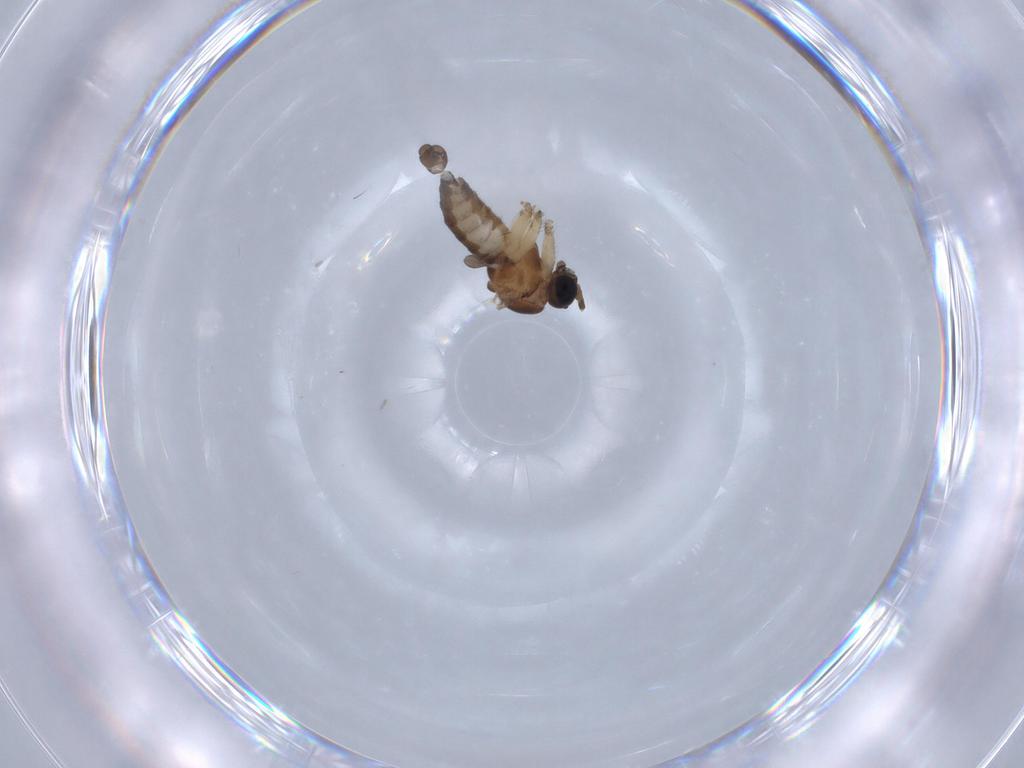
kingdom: Animalia
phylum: Arthropoda
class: Insecta
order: Diptera
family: Sciaridae
